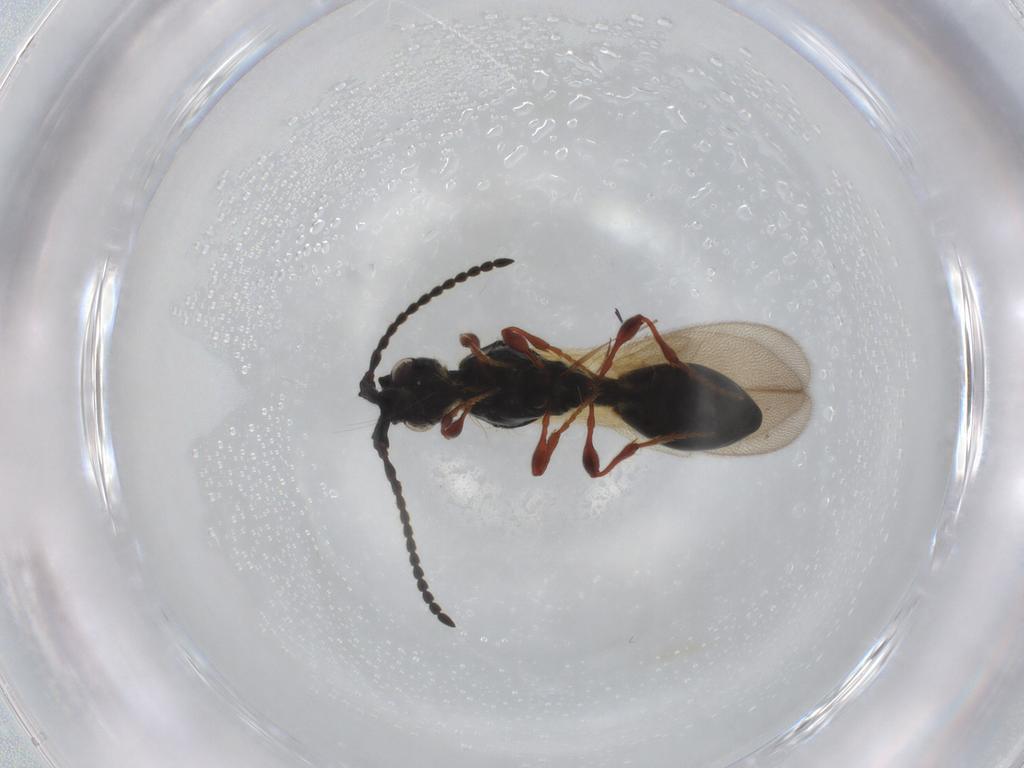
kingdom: Animalia
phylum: Arthropoda
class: Insecta
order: Hymenoptera
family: Diapriidae
